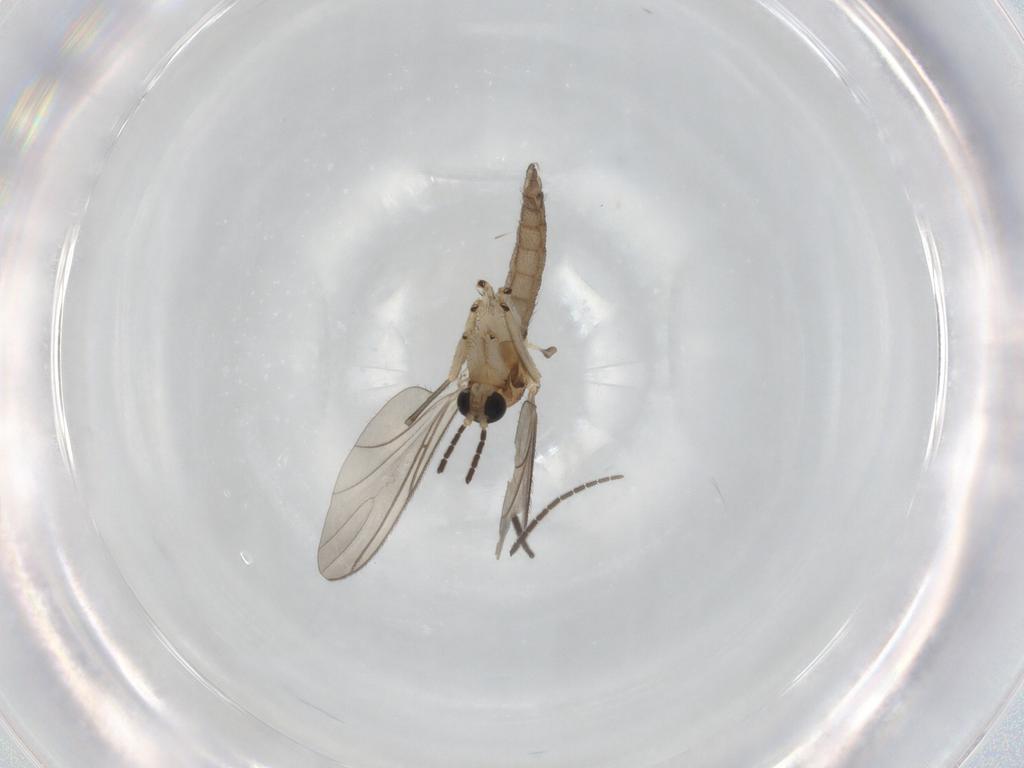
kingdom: Animalia
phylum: Arthropoda
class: Insecta
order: Diptera
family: Sciaridae
